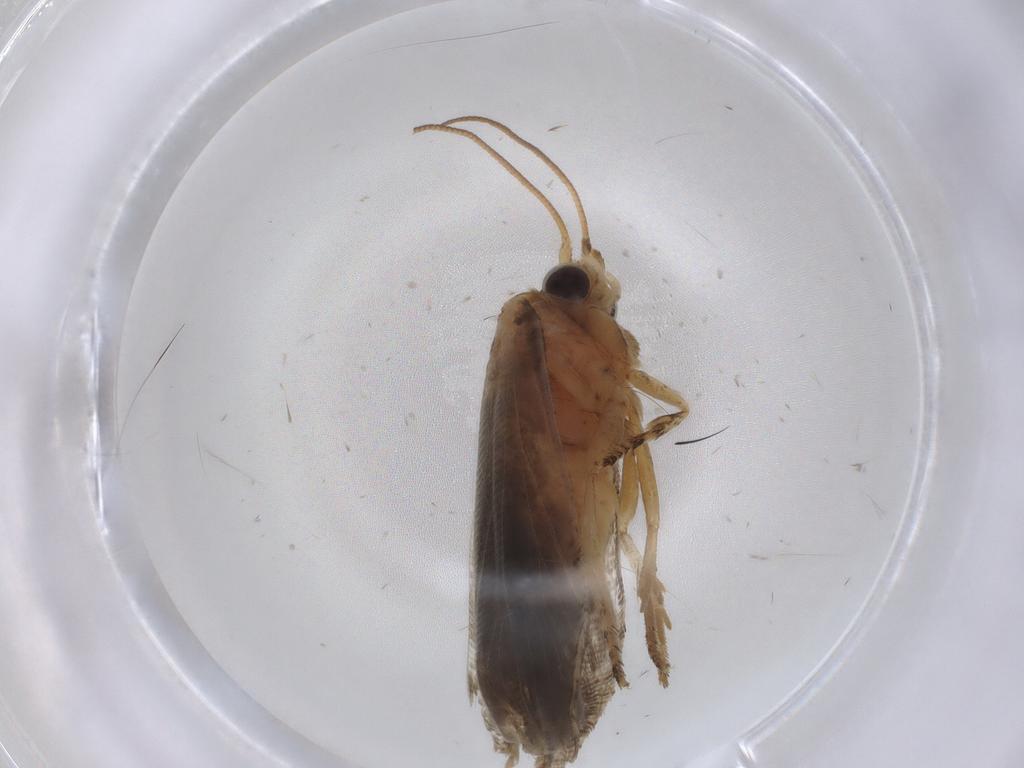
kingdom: Animalia
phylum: Arthropoda
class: Insecta
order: Lepidoptera
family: Tortricidae
